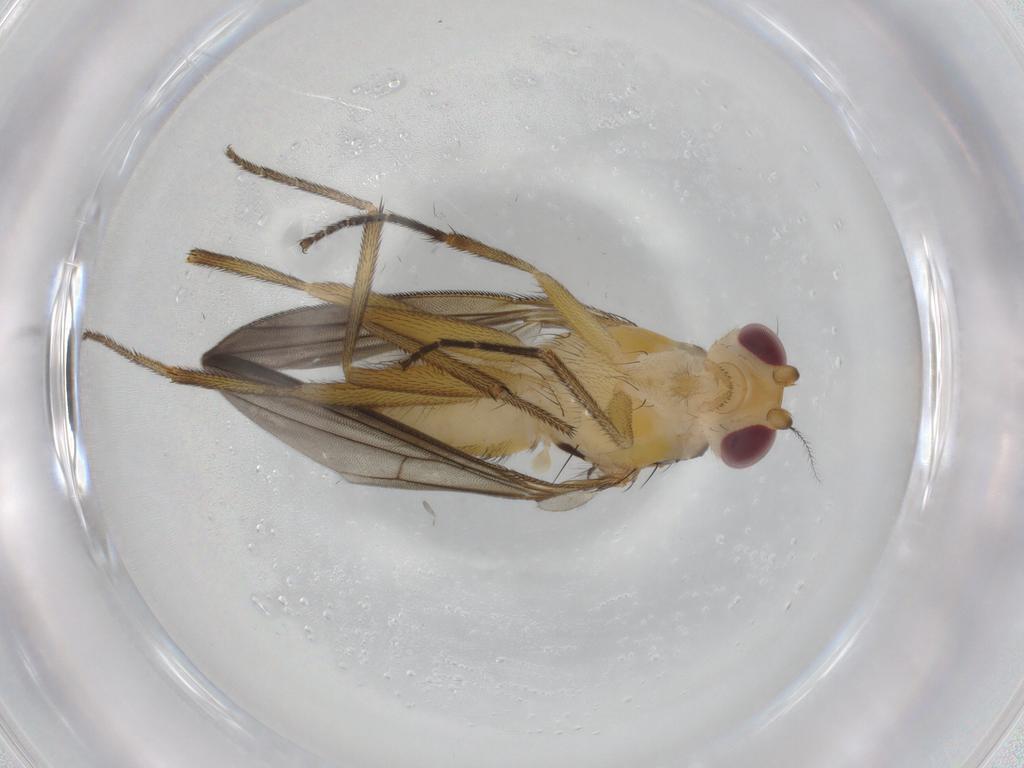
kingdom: Animalia
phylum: Arthropoda
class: Insecta
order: Diptera
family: Clusiidae
